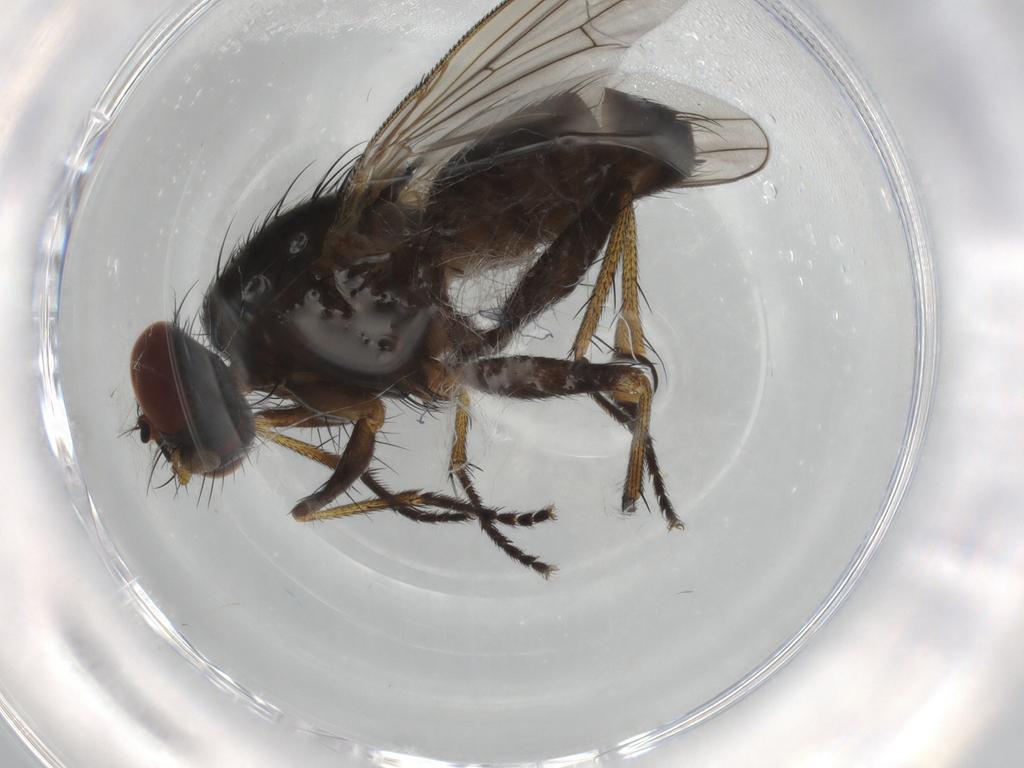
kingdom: Animalia
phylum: Arthropoda
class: Insecta
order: Diptera
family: Muscidae
